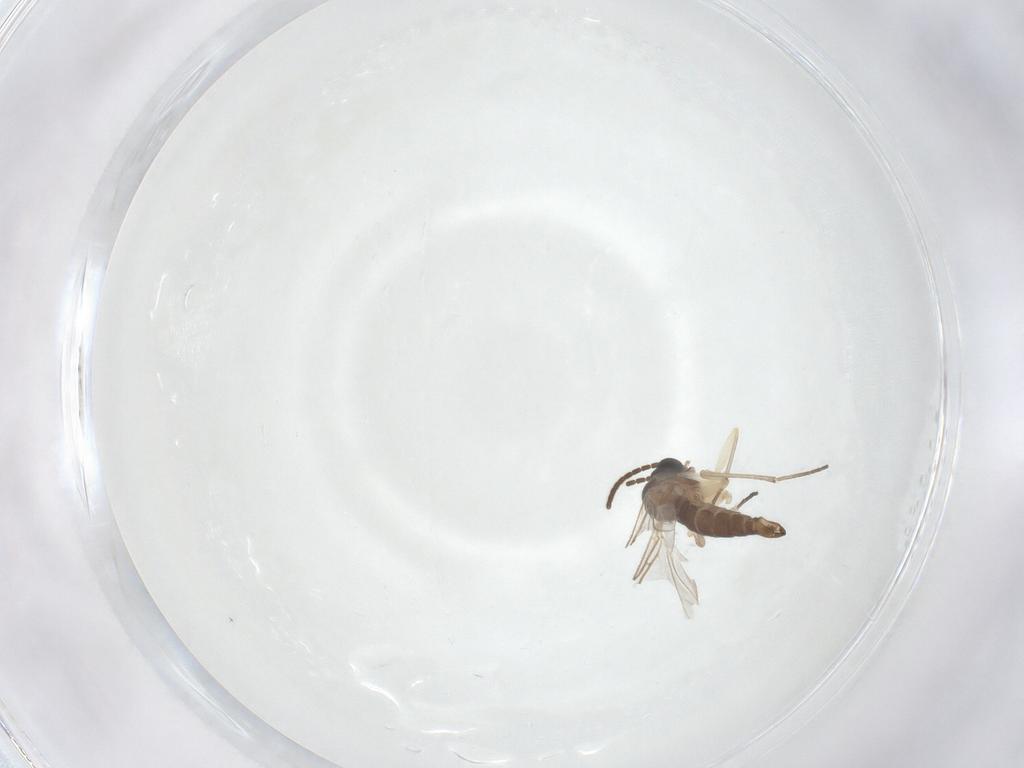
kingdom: Animalia
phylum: Arthropoda
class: Insecta
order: Diptera
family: Sciaridae
